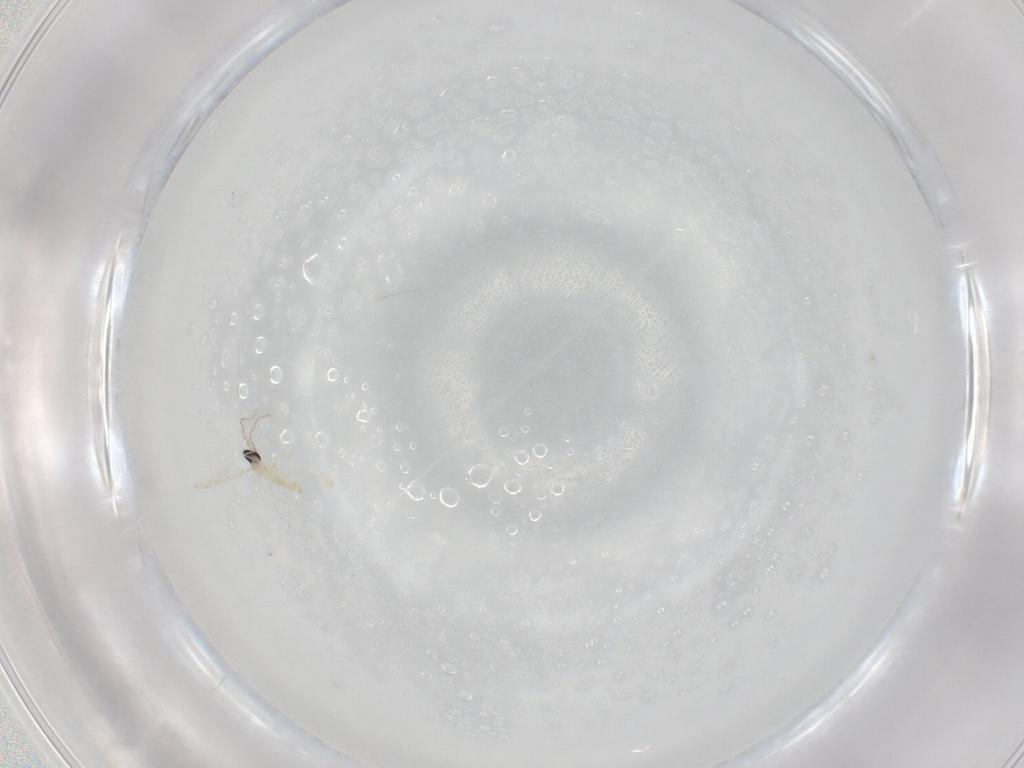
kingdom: Animalia
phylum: Arthropoda
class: Insecta
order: Diptera
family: Cecidomyiidae
